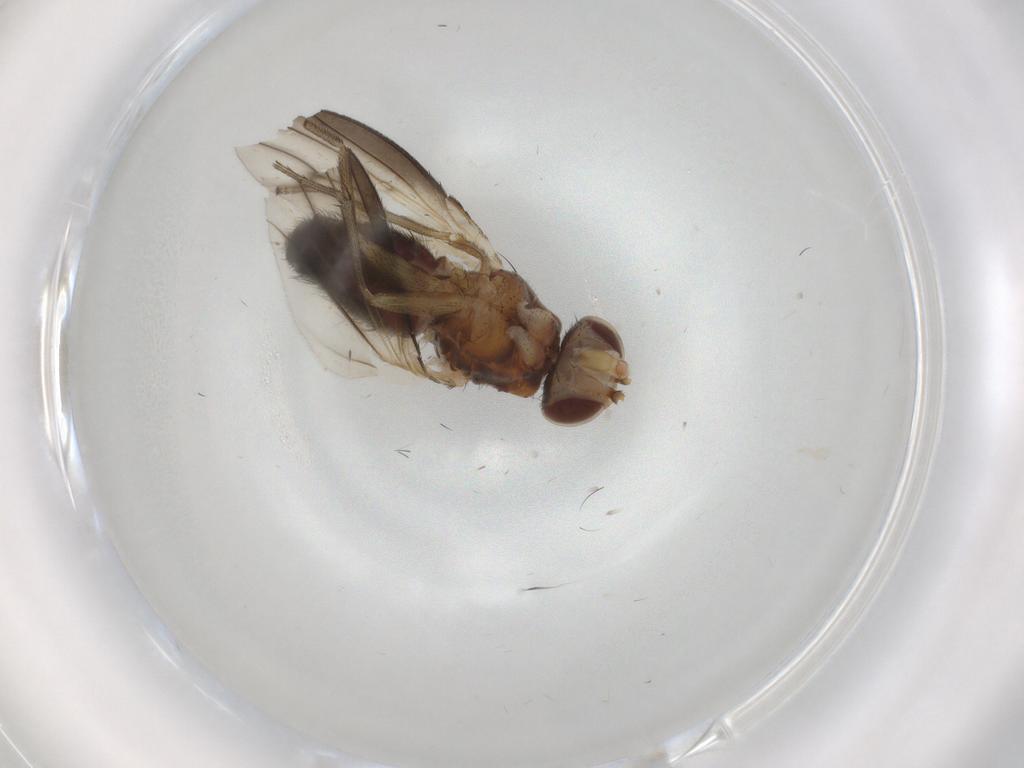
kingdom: Animalia
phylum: Arthropoda
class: Insecta
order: Diptera
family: Heleomyzidae
